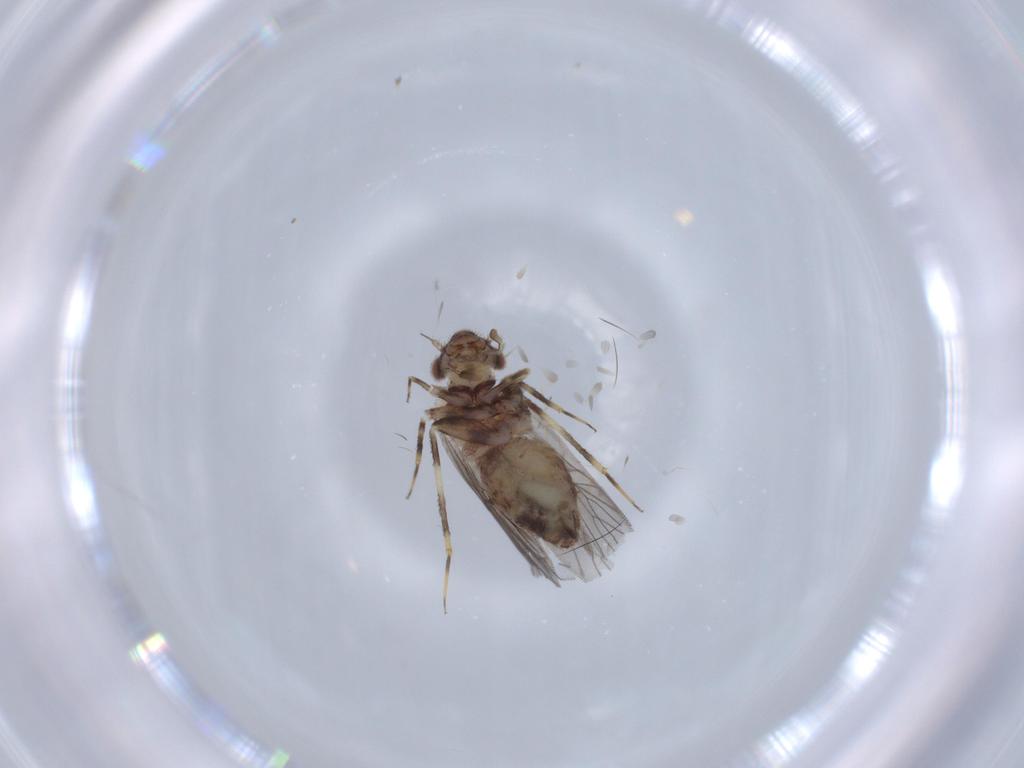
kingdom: Animalia
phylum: Arthropoda
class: Insecta
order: Psocodea
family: Lepidopsocidae
